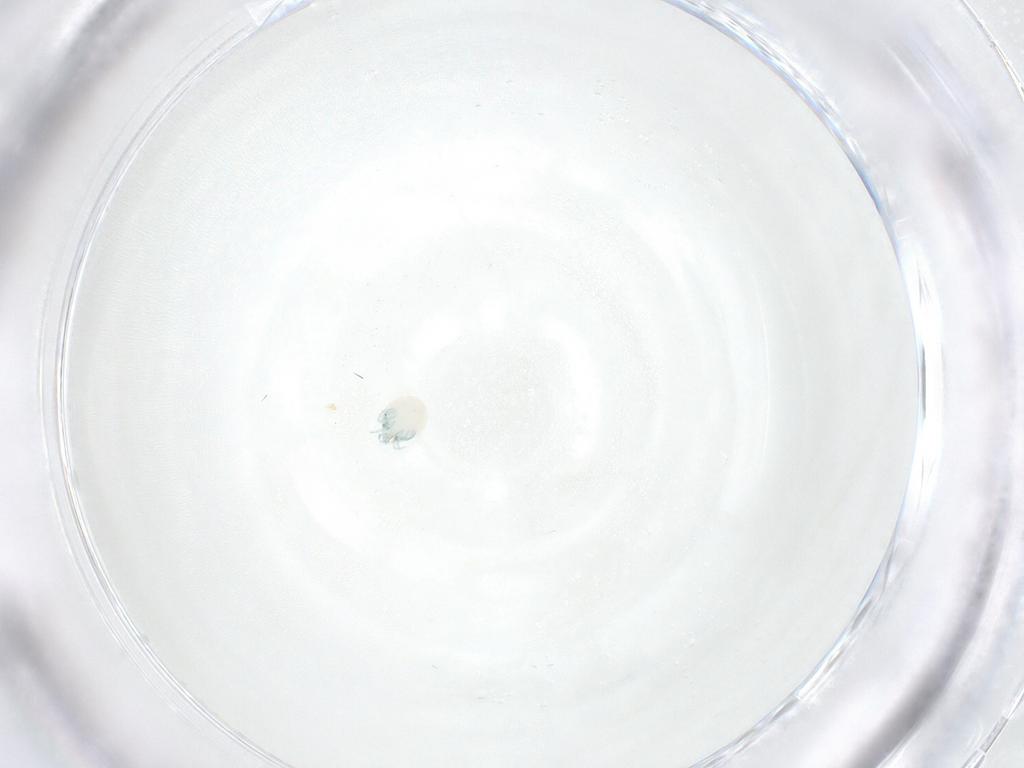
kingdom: Animalia
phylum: Arthropoda
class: Arachnida
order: Trombidiformes
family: Arrenuridae
